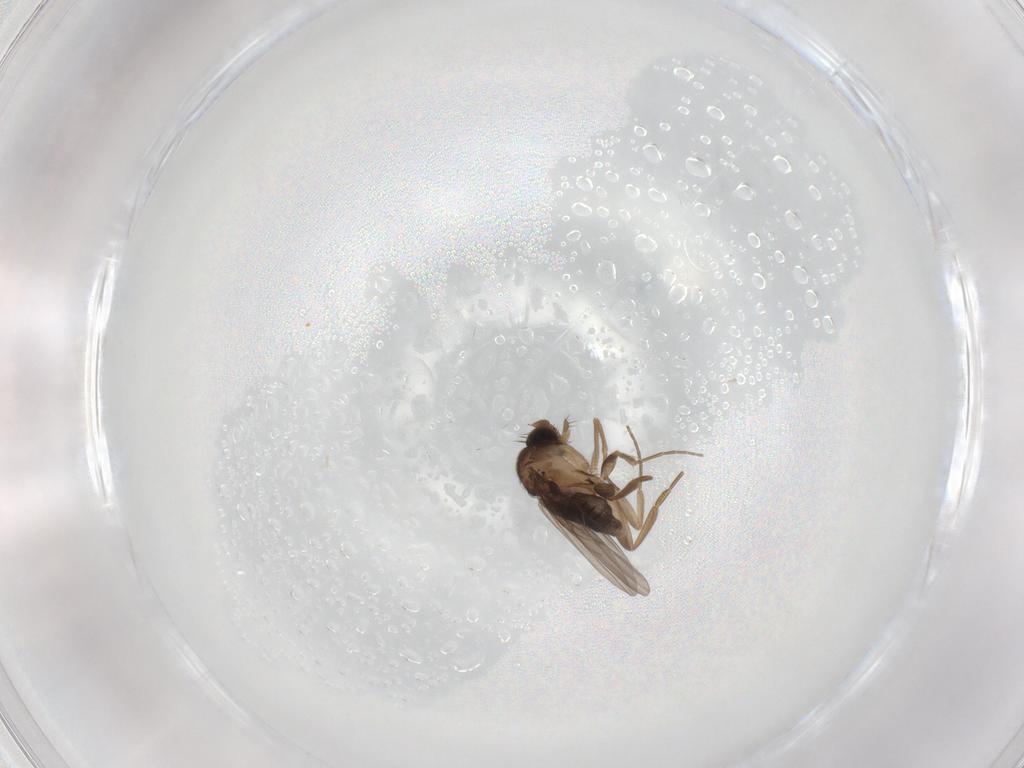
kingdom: Animalia
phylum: Arthropoda
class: Insecta
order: Diptera
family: Phoridae
